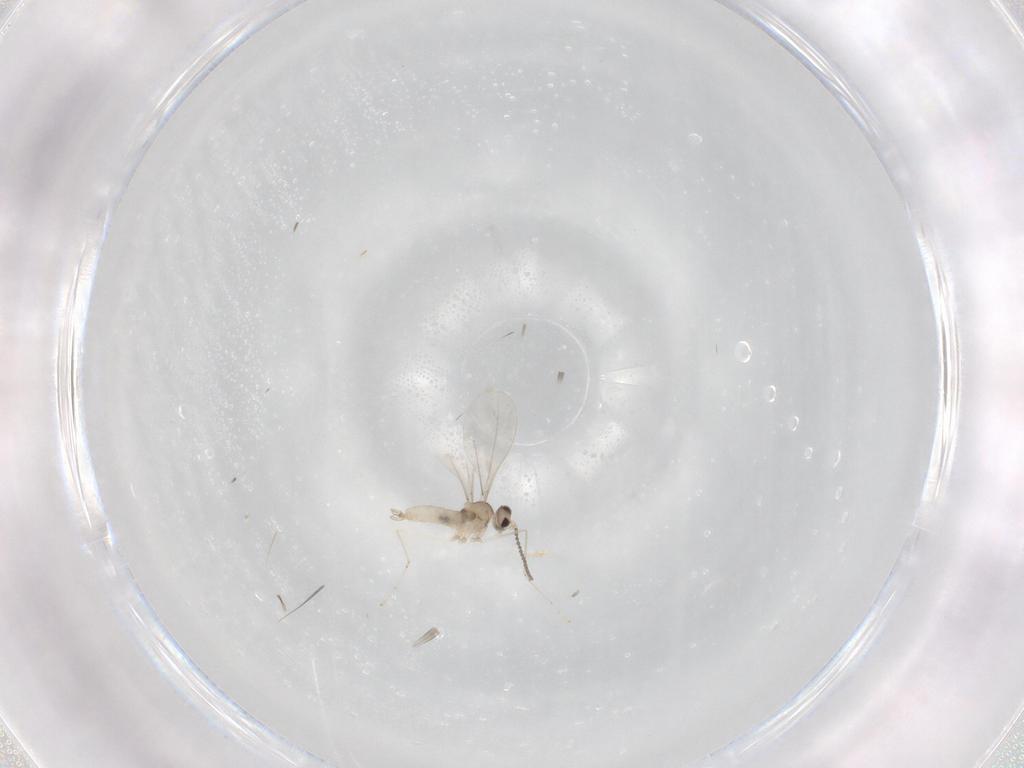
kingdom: Animalia
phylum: Arthropoda
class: Insecta
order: Diptera
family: Cecidomyiidae
